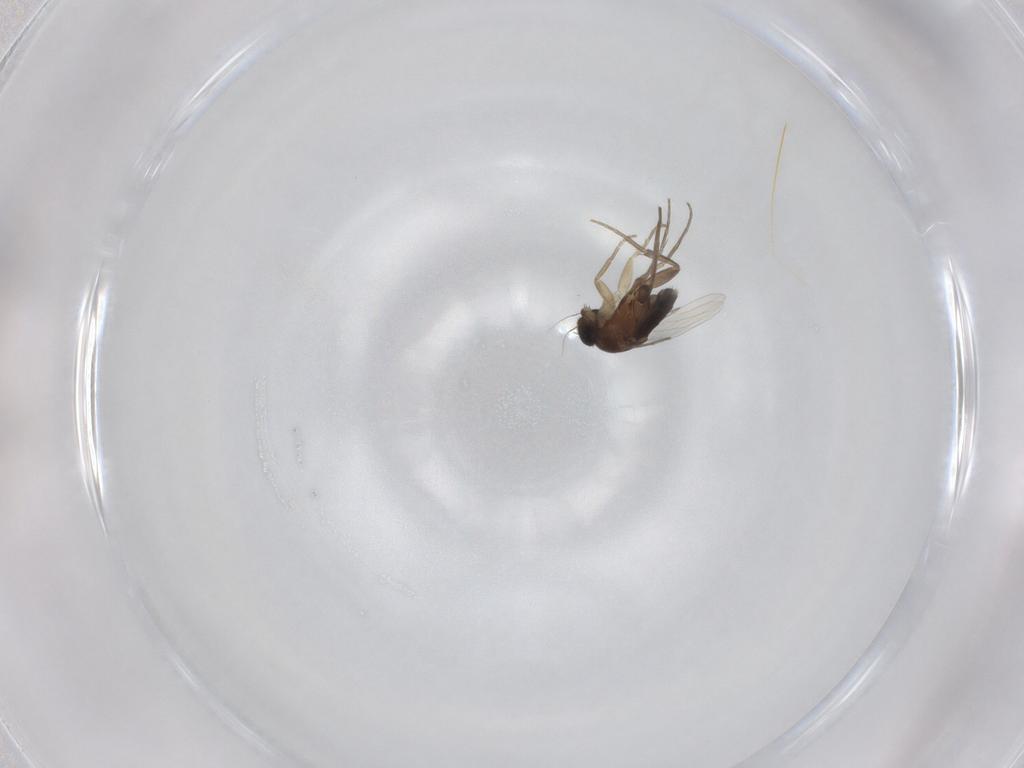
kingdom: Animalia
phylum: Arthropoda
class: Insecta
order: Diptera
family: Phoridae
